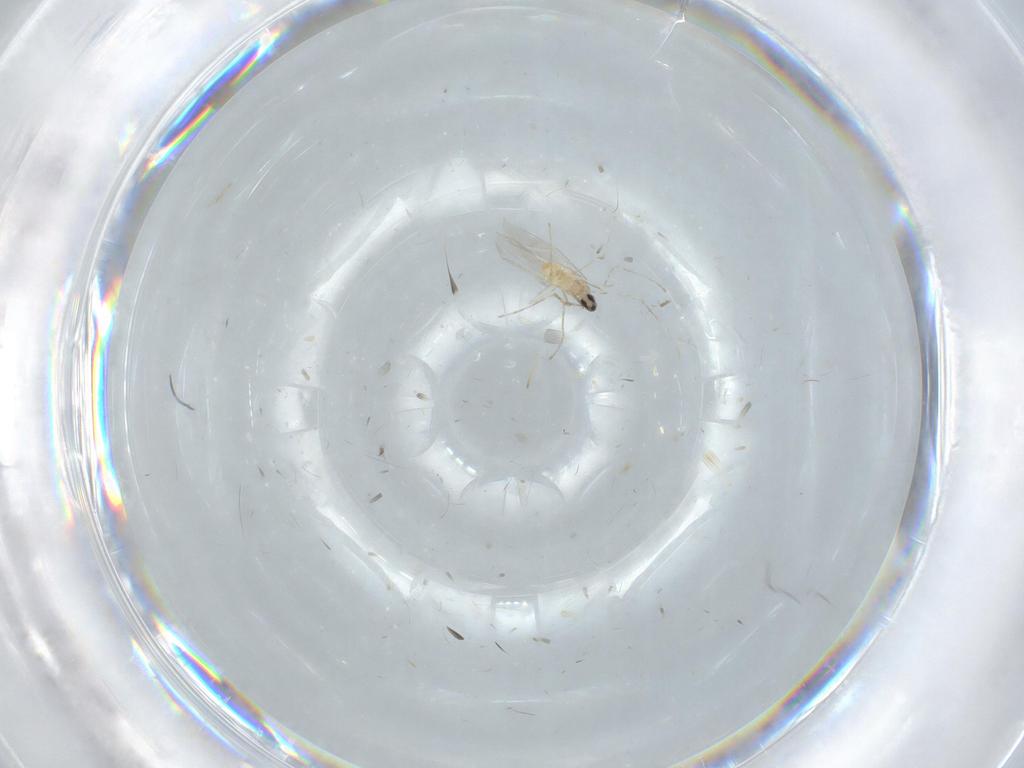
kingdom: Animalia
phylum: Arthropoda
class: Insecta
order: Diptera
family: Cecidomyiidae
